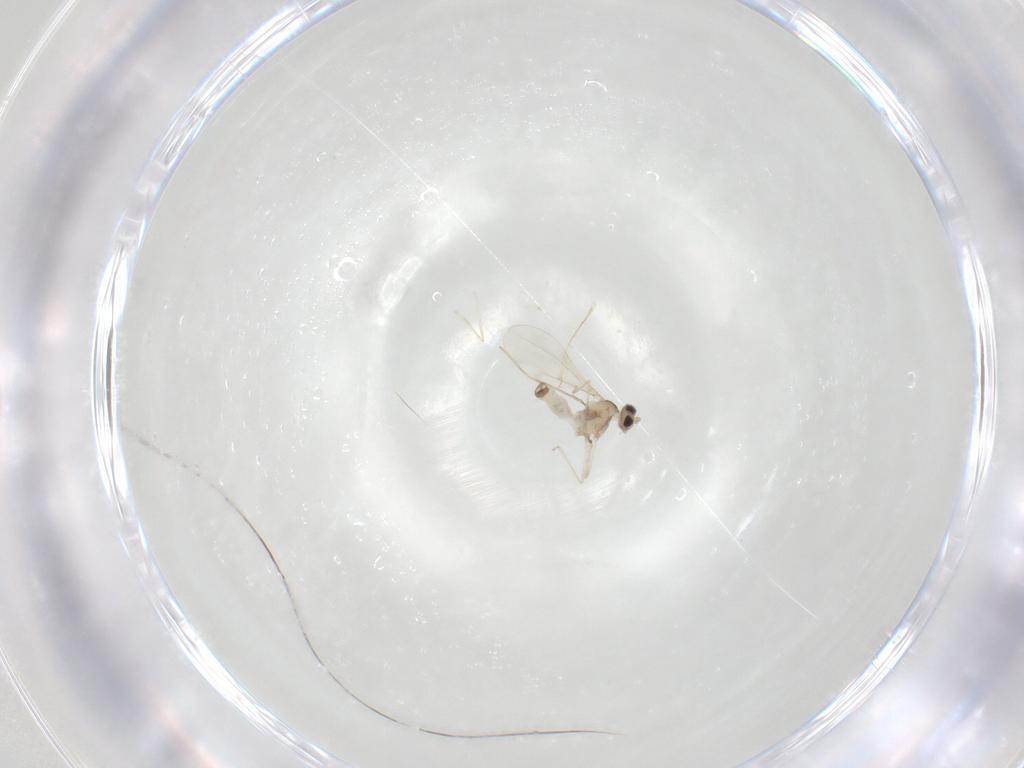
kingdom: Animalia
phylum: Arthropoda
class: Insecta
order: Diptera
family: Cecidomyiidae
